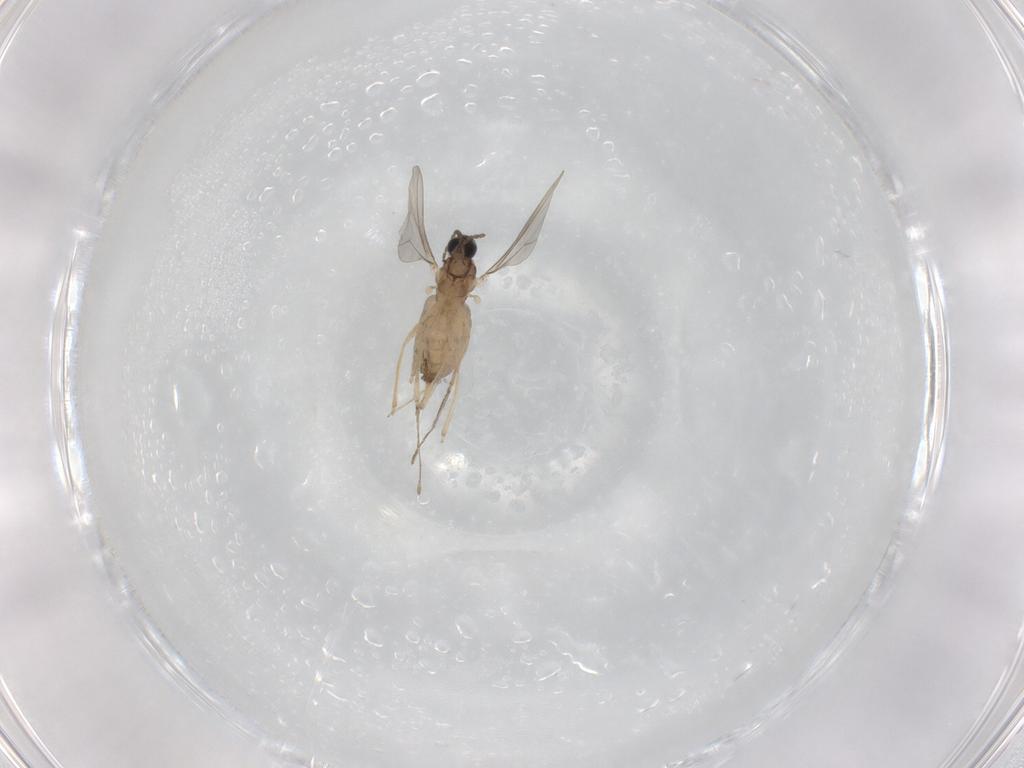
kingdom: Animalia
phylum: Arthropoda
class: Insecta
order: Diptera
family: Cecidomyiidae
